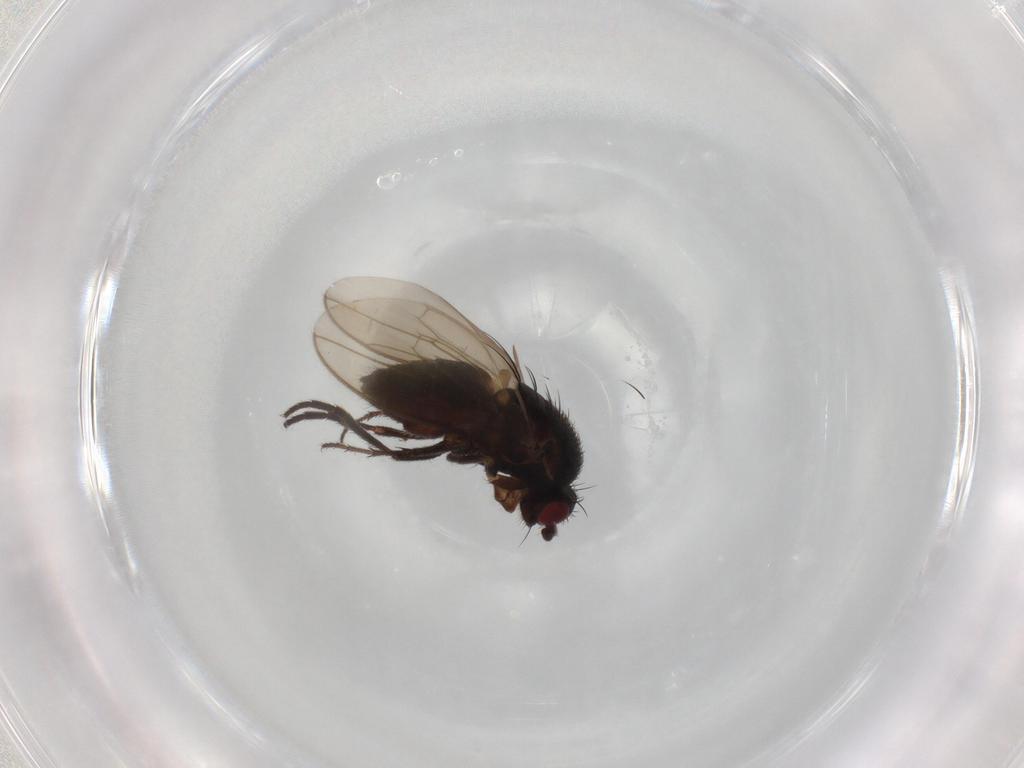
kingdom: Animalia
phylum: Arthropoda
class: Insecta
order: Diptera
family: Sphaeroceridae
